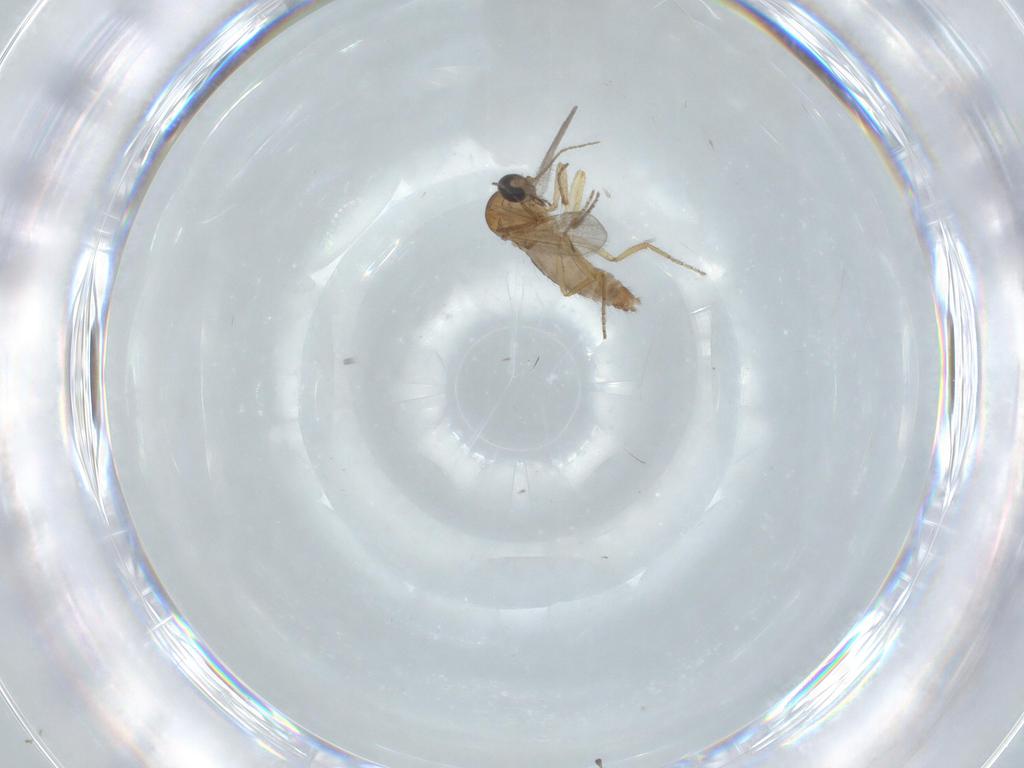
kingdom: Animalia
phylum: Arthropoda
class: Insecta
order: Diptera
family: Ceratopogonidae
